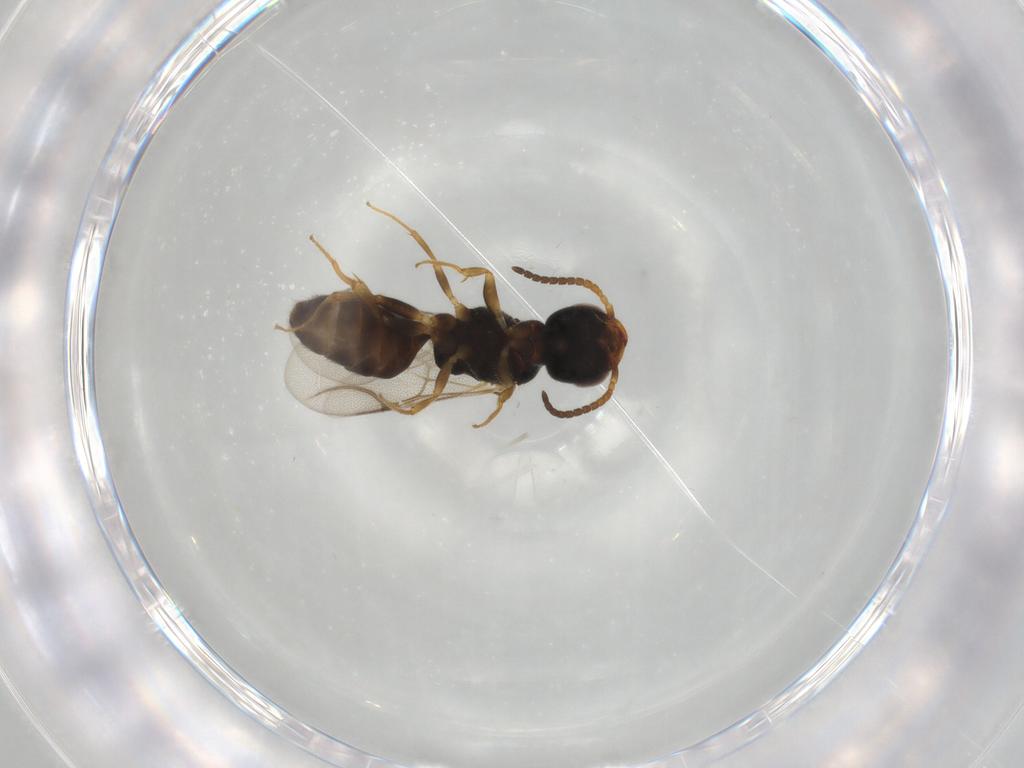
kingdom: Animalia
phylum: Arthropoda
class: Insecta
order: Hymenoptera
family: Bethylidae
